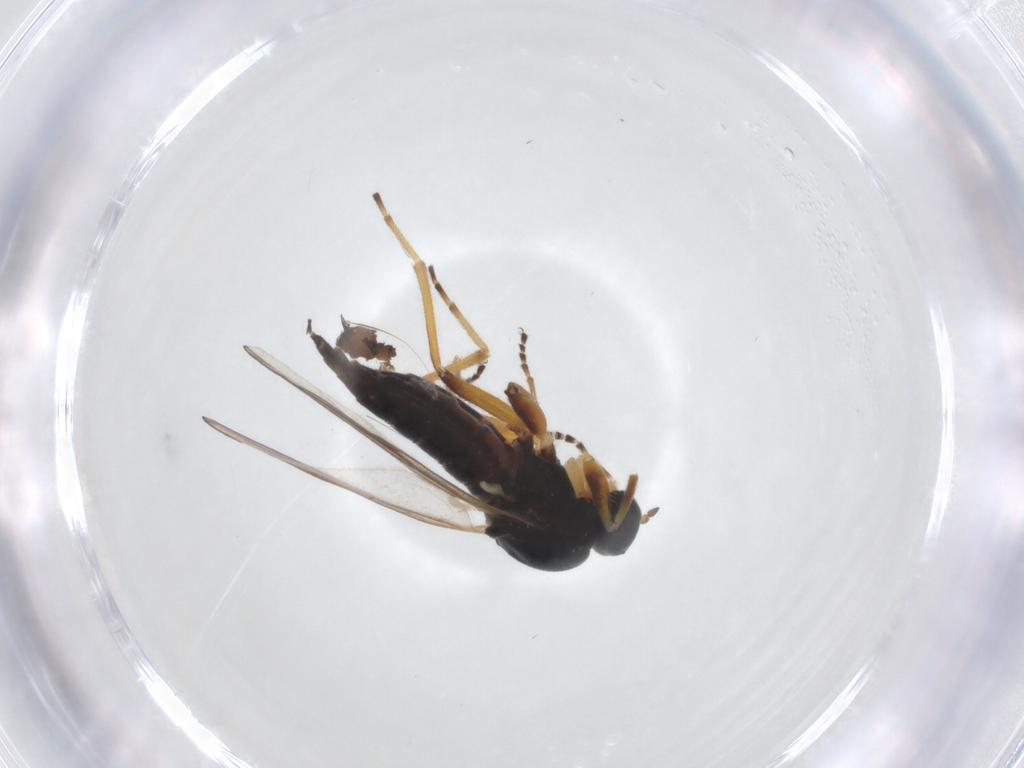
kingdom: Animalia
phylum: Arthropoda
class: Insecta
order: Diptera
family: Hybotidae
